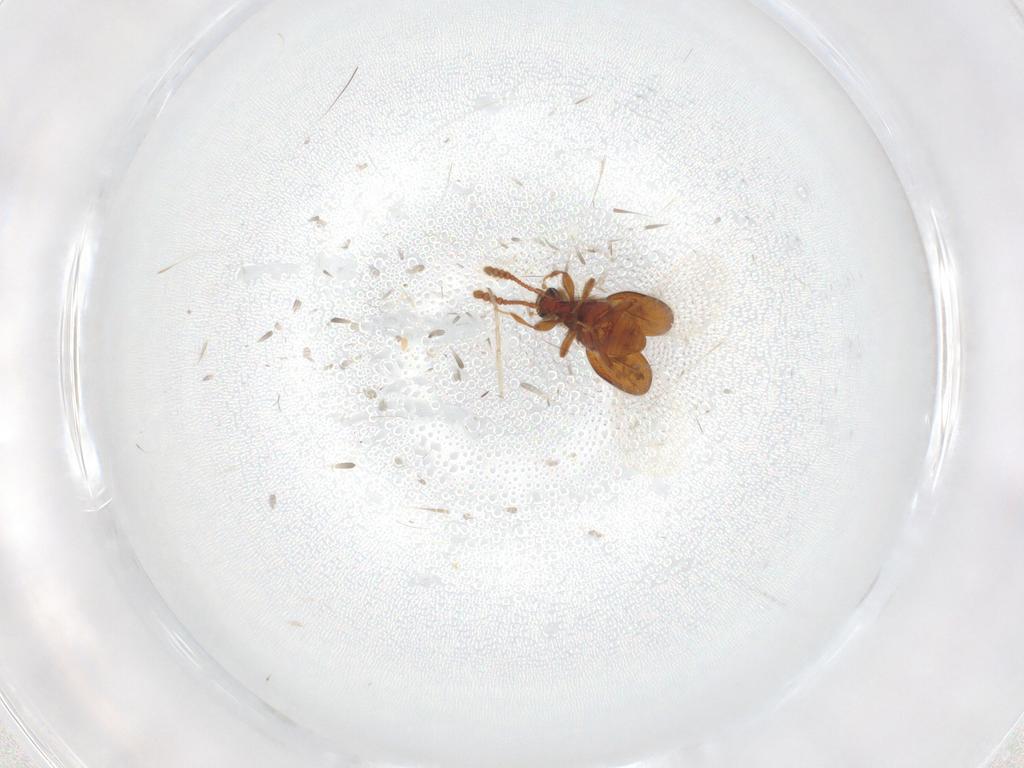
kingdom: Animalia
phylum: Arthropoda
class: Insecta
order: Coleoptera
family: Staphylinidae
